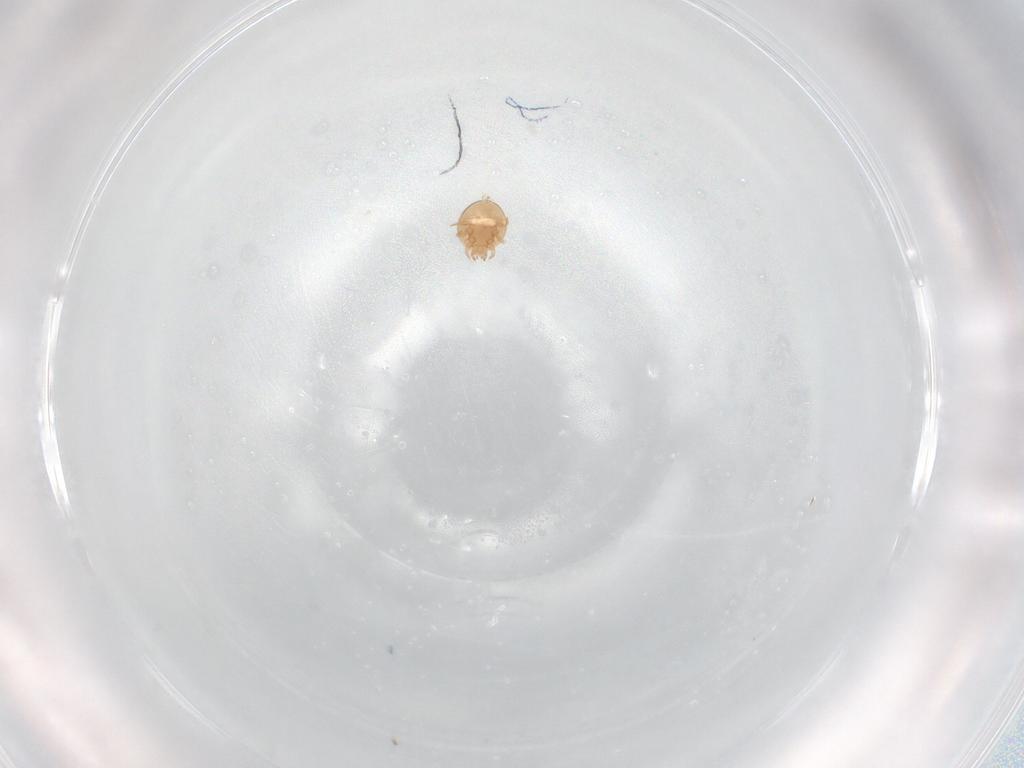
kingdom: Animalia
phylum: Arthropoda
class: Arachnida
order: Mesostigmata
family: Trematuridae
